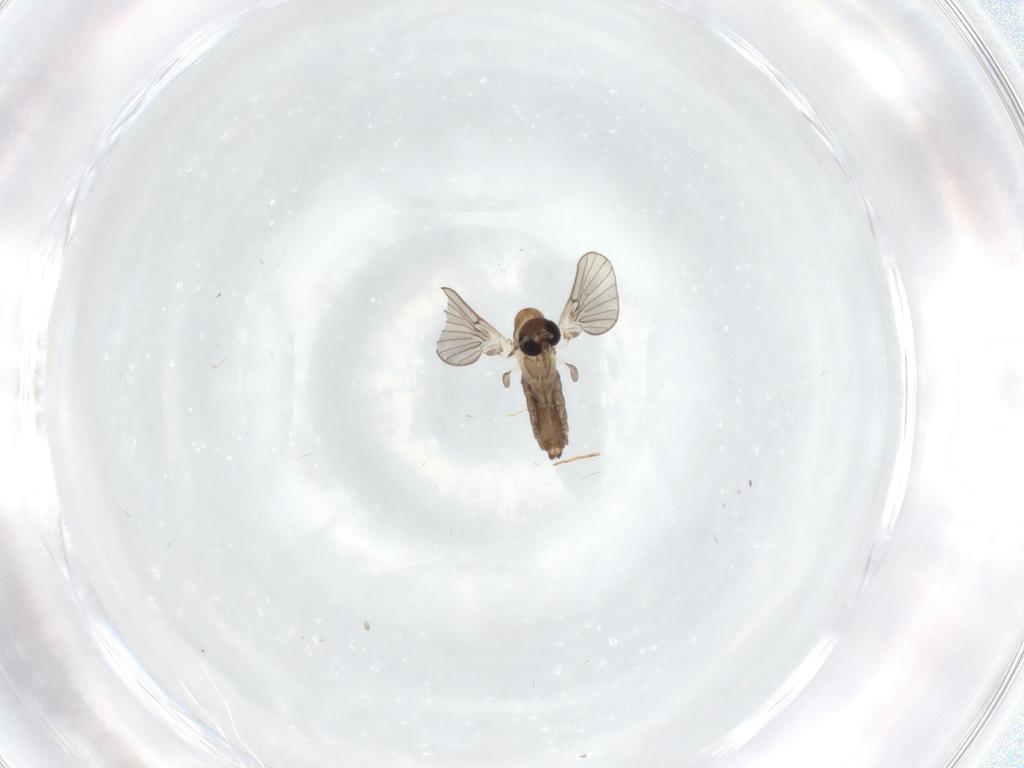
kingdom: Animalia
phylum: Arthropoda
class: Insecta
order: Diptera
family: Psychodidae
